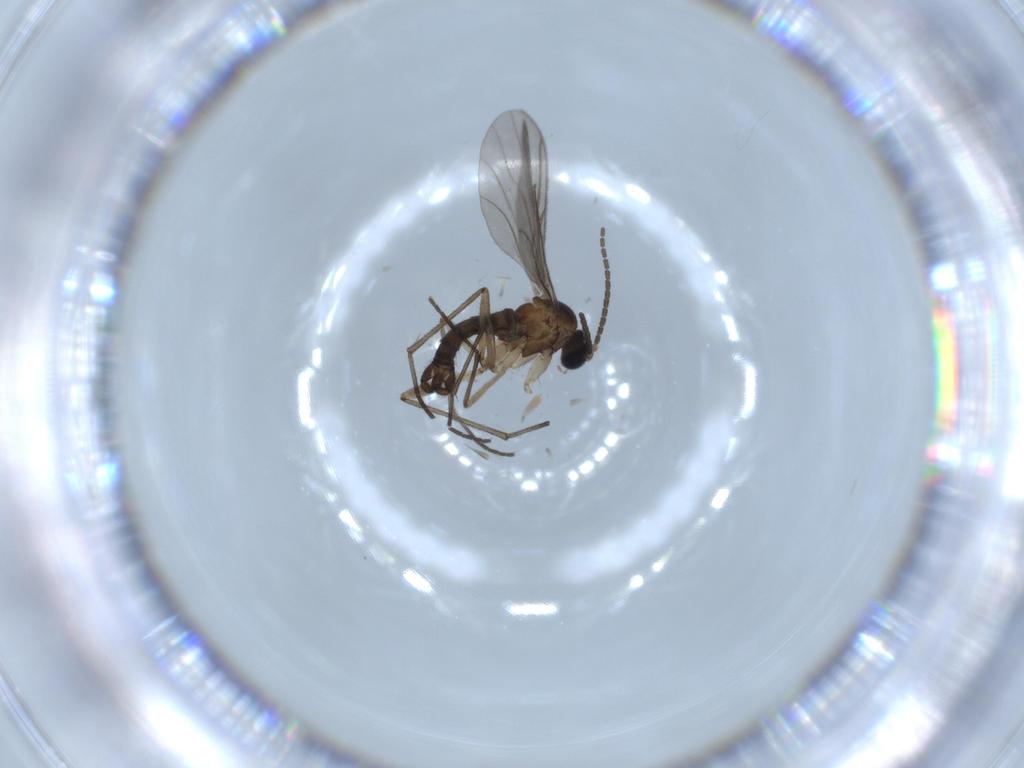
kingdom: Animalia
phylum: Arthropoda
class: Insecta
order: Diptera
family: Sciaridae
